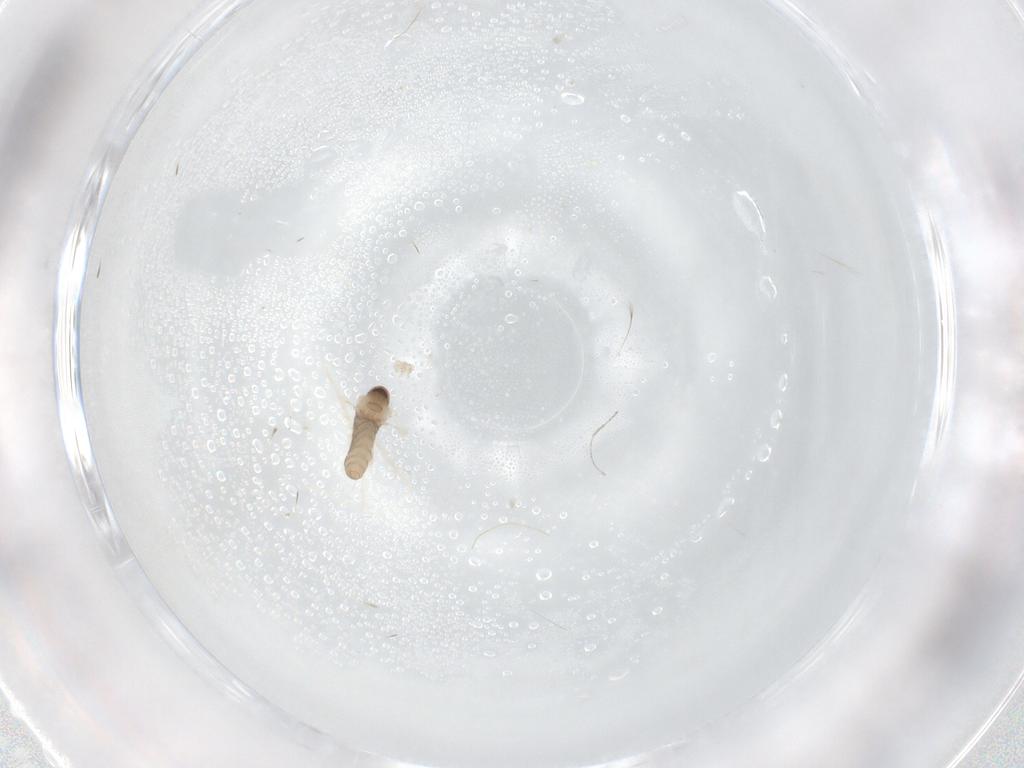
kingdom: Animalia
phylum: Arthropoda
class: Insecta
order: Diptera
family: Cecidomyiidae
